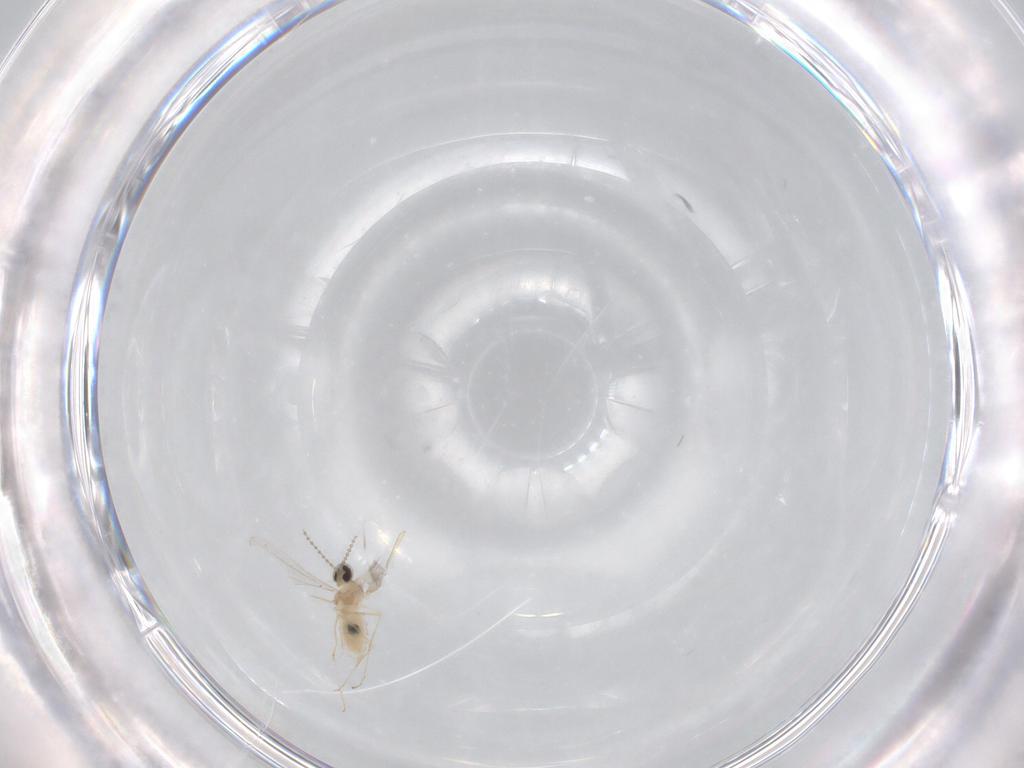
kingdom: Animalia
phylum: Arthropoda
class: Insecta
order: Diptera
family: Cecidomyiidae
